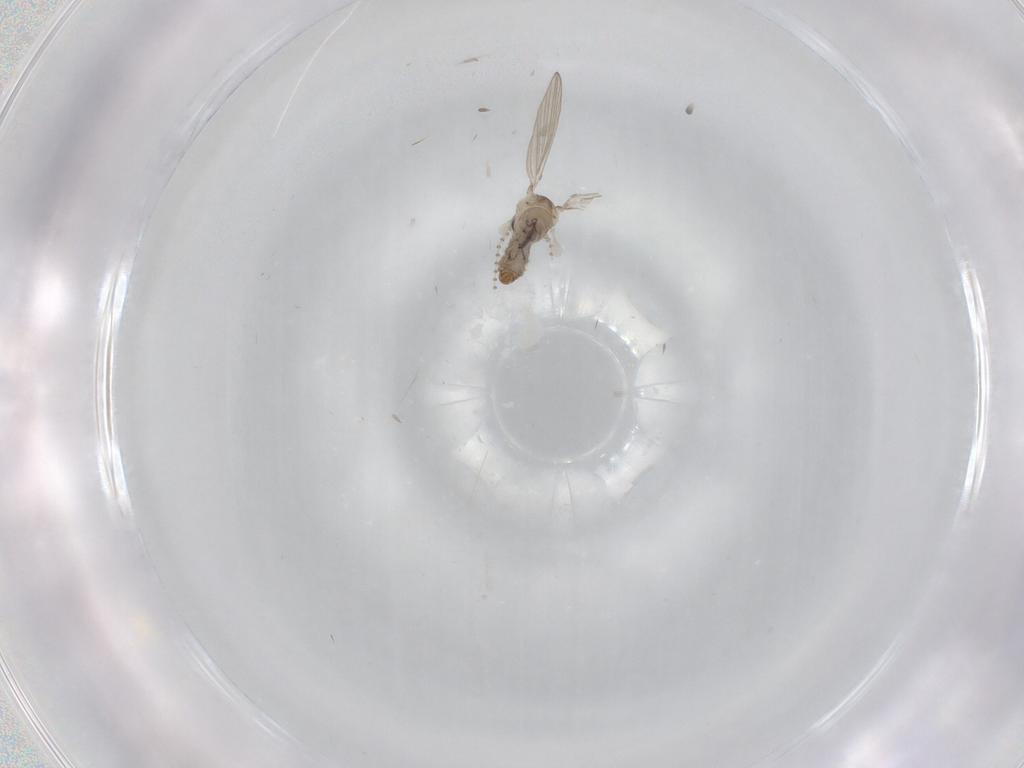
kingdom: Animalia
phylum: Arthropoda
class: Insecta
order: Diptera
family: Psychodidae
